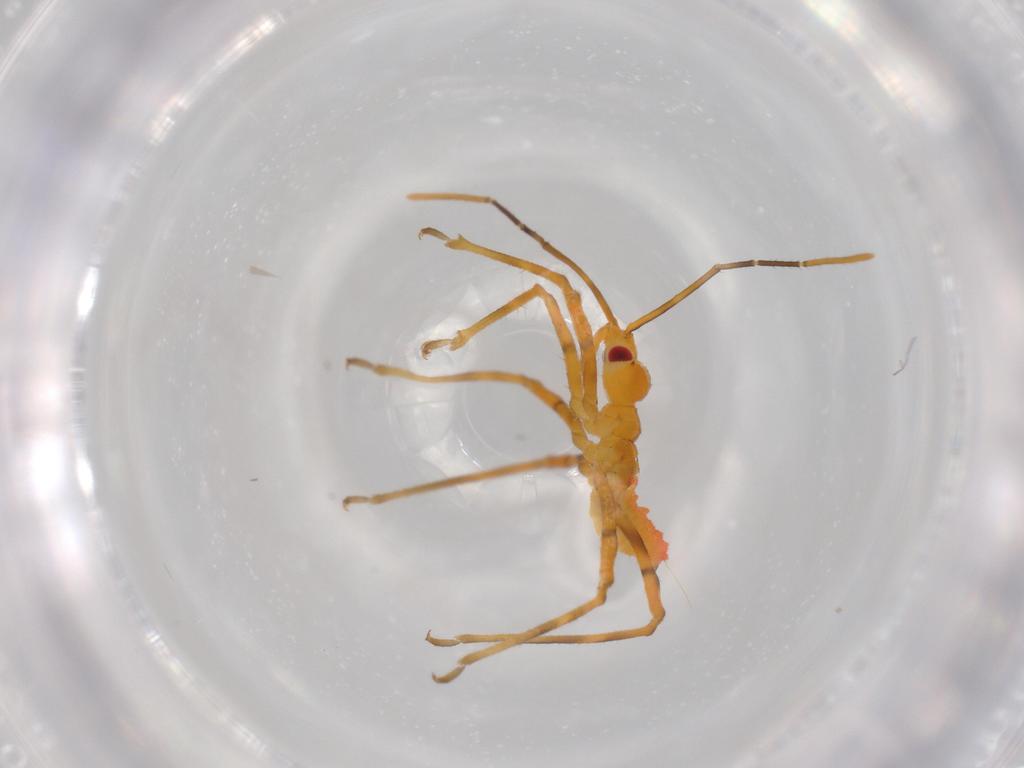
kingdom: Animalia
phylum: Arthropoda
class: Insecta
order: Hemiptera
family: Reduviidae
